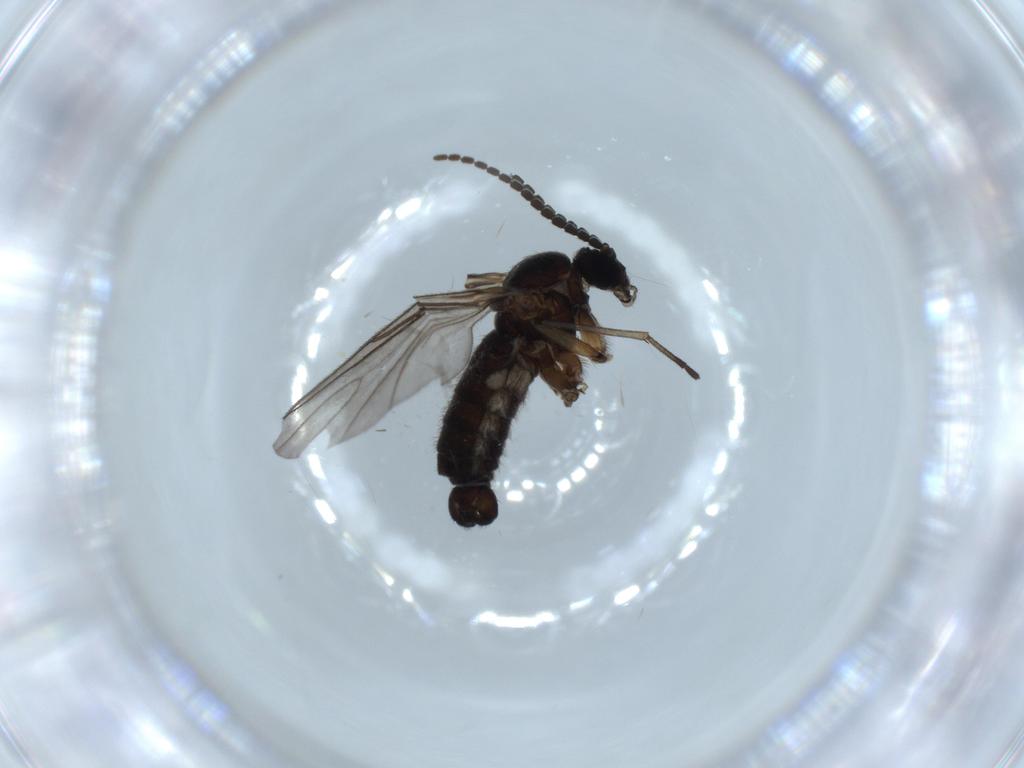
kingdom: Animalia
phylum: Arthropoda
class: Insecta
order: Diptera
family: Sciaridae
